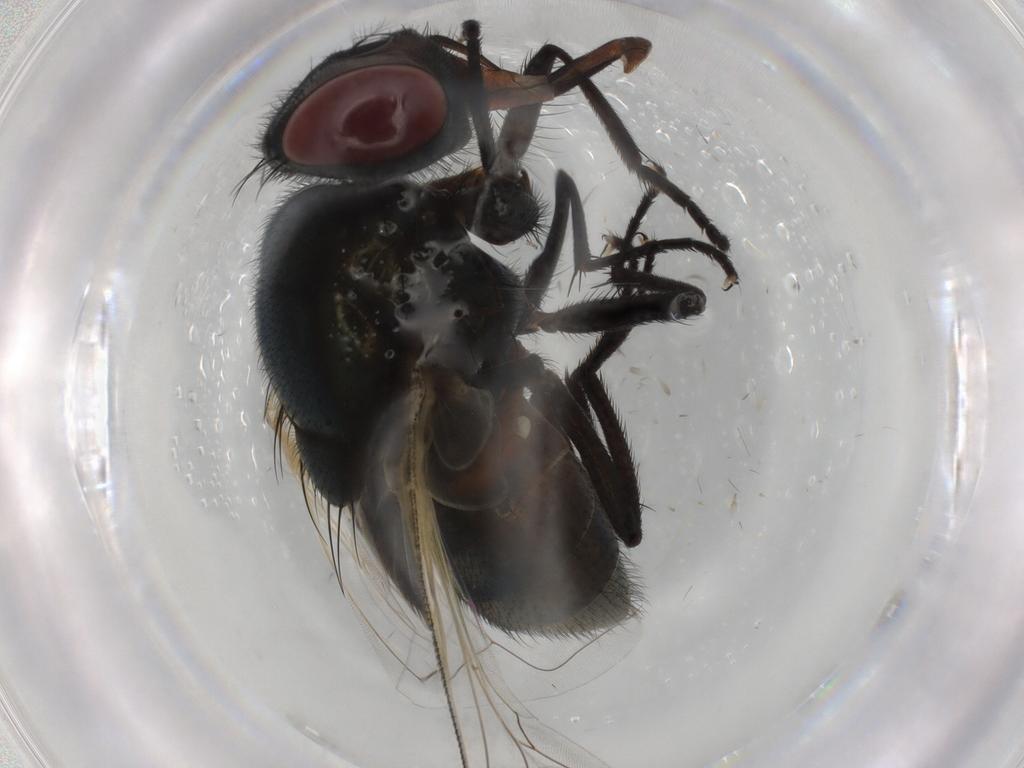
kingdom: Animalia
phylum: Arthropoda
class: Insecta
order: Diptera
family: Muscidae
